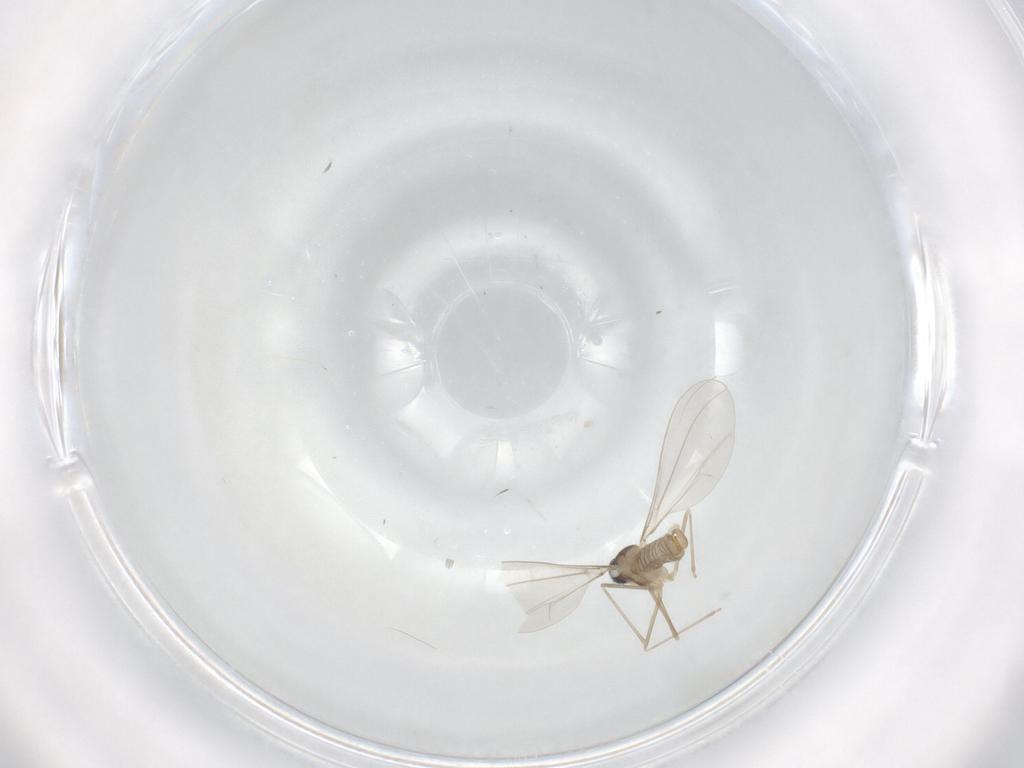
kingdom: Animalia
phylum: Arthropoda
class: Insecta
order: Diptera
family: Cecidomyiidae
